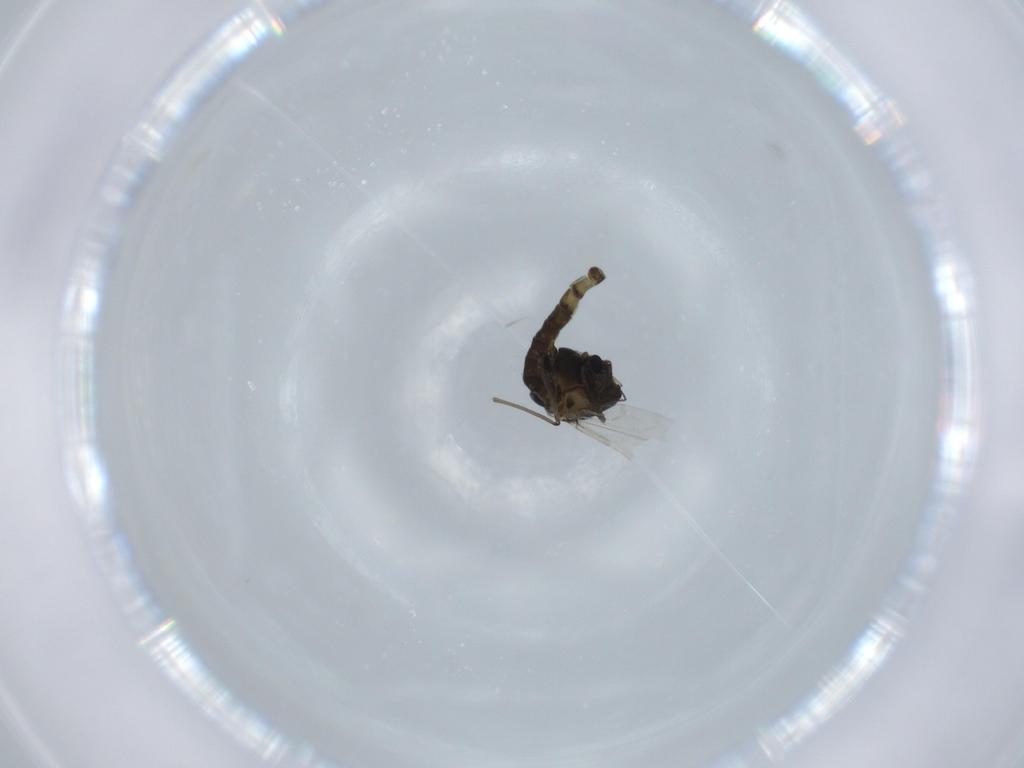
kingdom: Animalia
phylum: Arthropoda
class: Insecta
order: Diptera
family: Chironomidae
